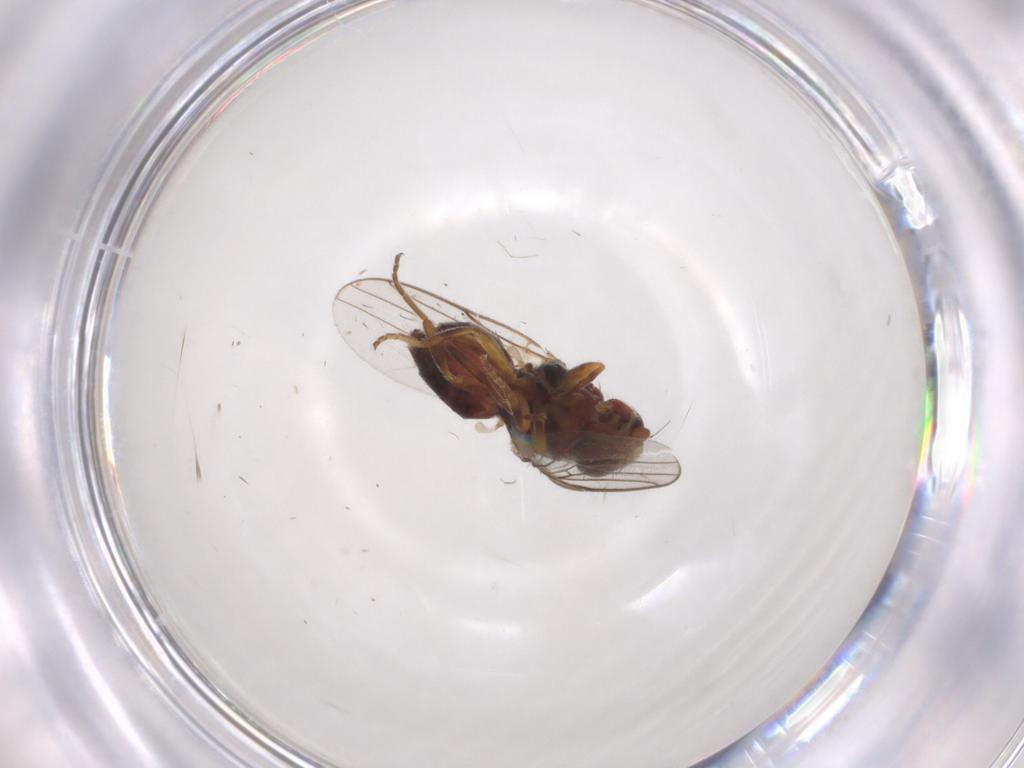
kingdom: Animalia
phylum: Arthropoda
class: Insecta
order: Diptera
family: Chloropidae
